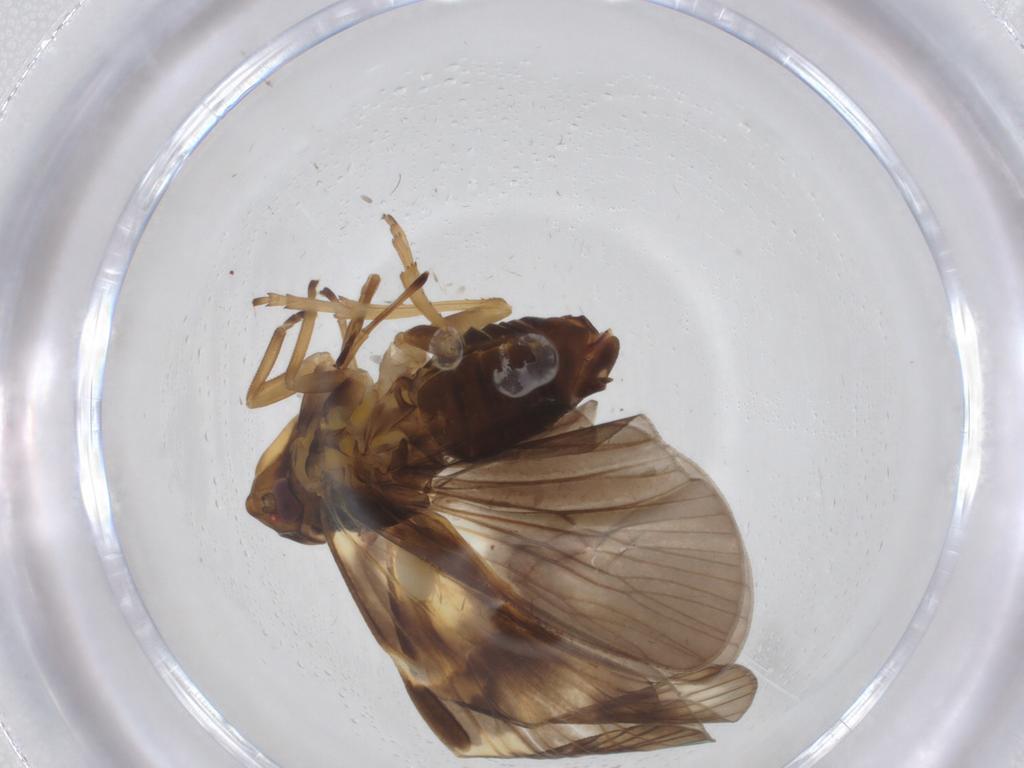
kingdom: Animalia
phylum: Arthropoda
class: Insecta
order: Hemiptera
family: Cixiidae
